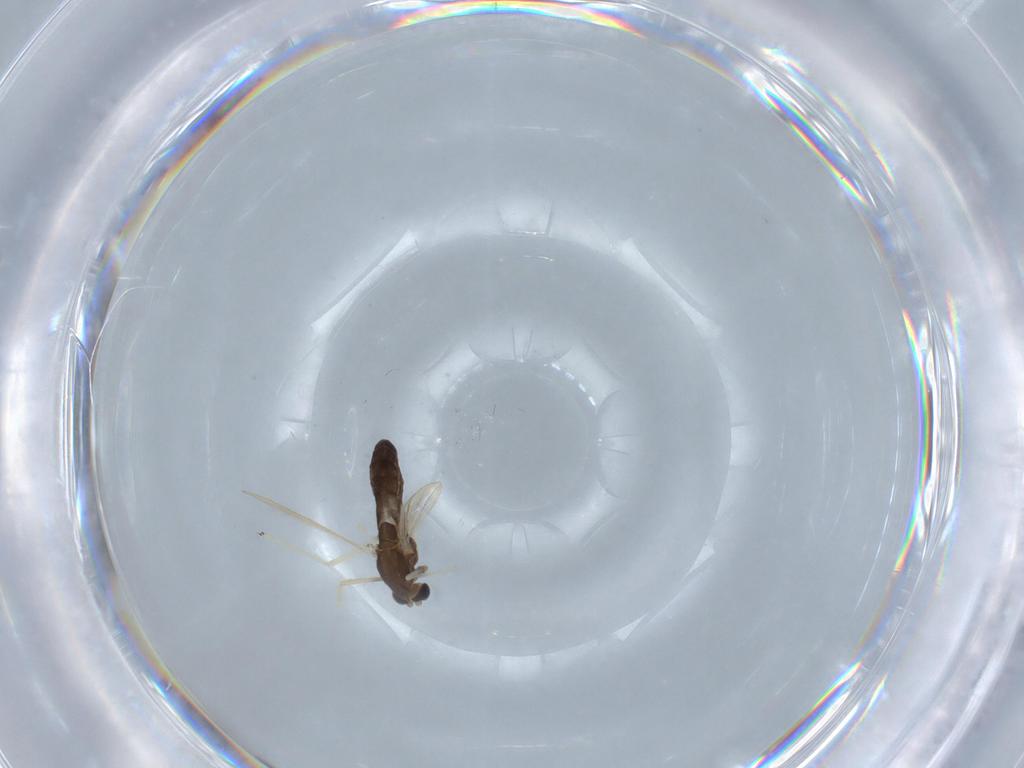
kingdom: Animalia
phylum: Arthropoda
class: Insecta
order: Diptera
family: Chironomidae
